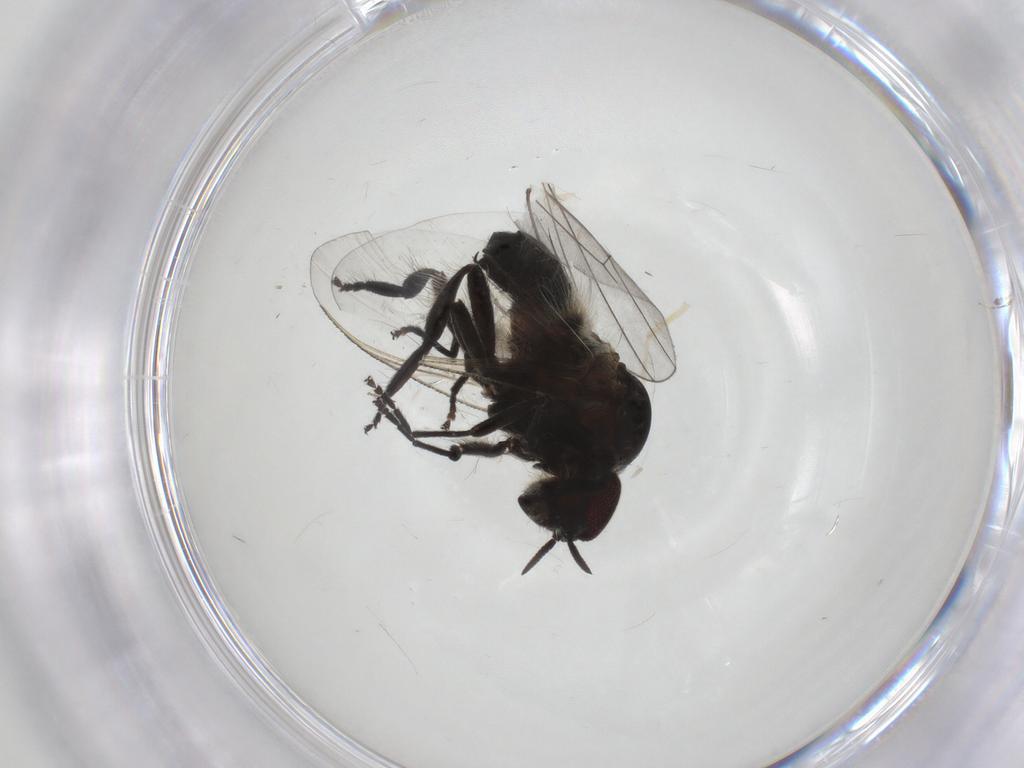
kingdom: Animalia
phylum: Arthropoda
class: Insecta
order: Diptera
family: Simuliidae
